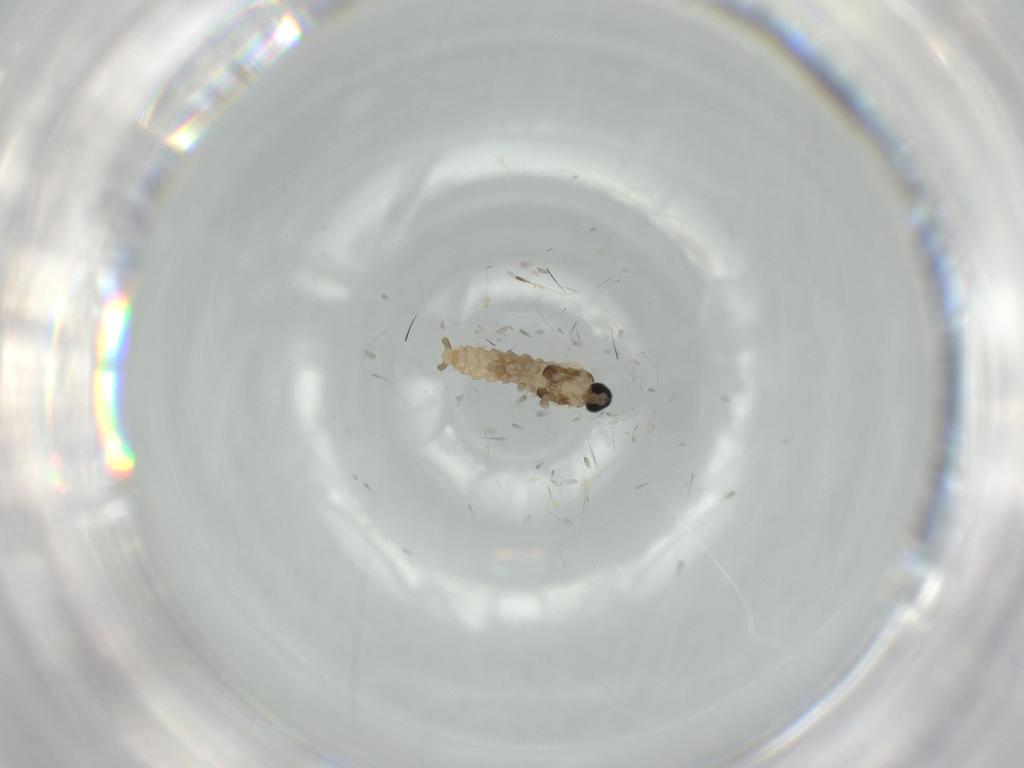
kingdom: Animalia
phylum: Arthropoda
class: Insecta
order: Diptera
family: Cecidomyiidae
